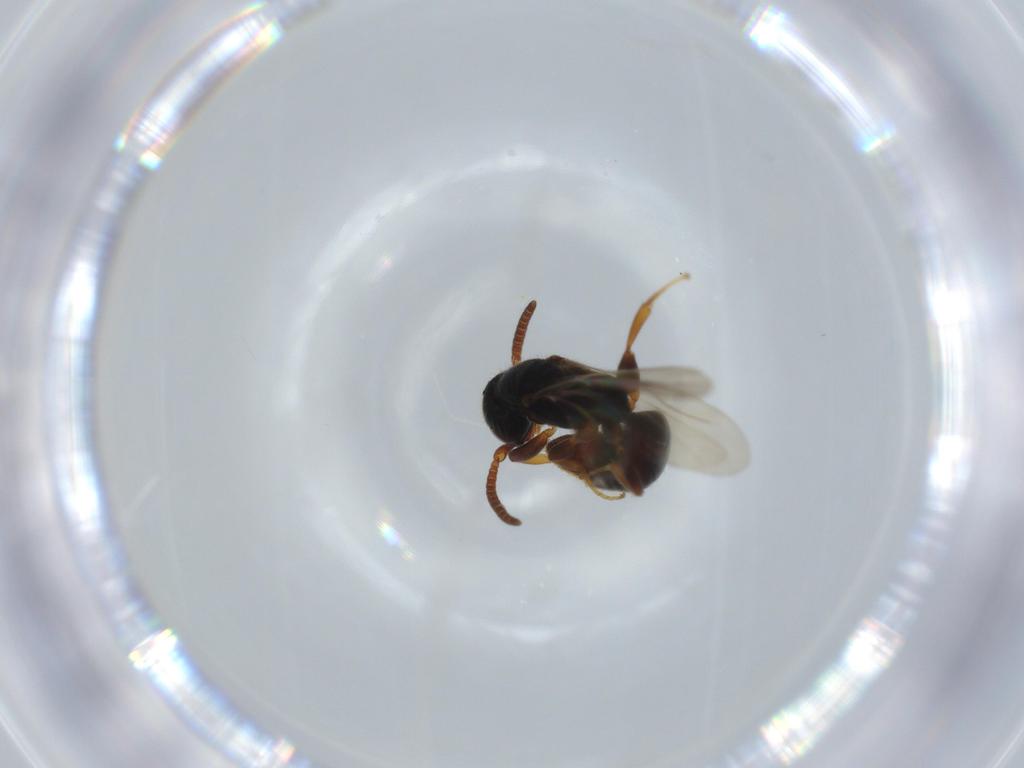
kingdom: Animalia
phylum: Arthropoda
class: Insecta
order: Hymenoptera
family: Bethylidae
